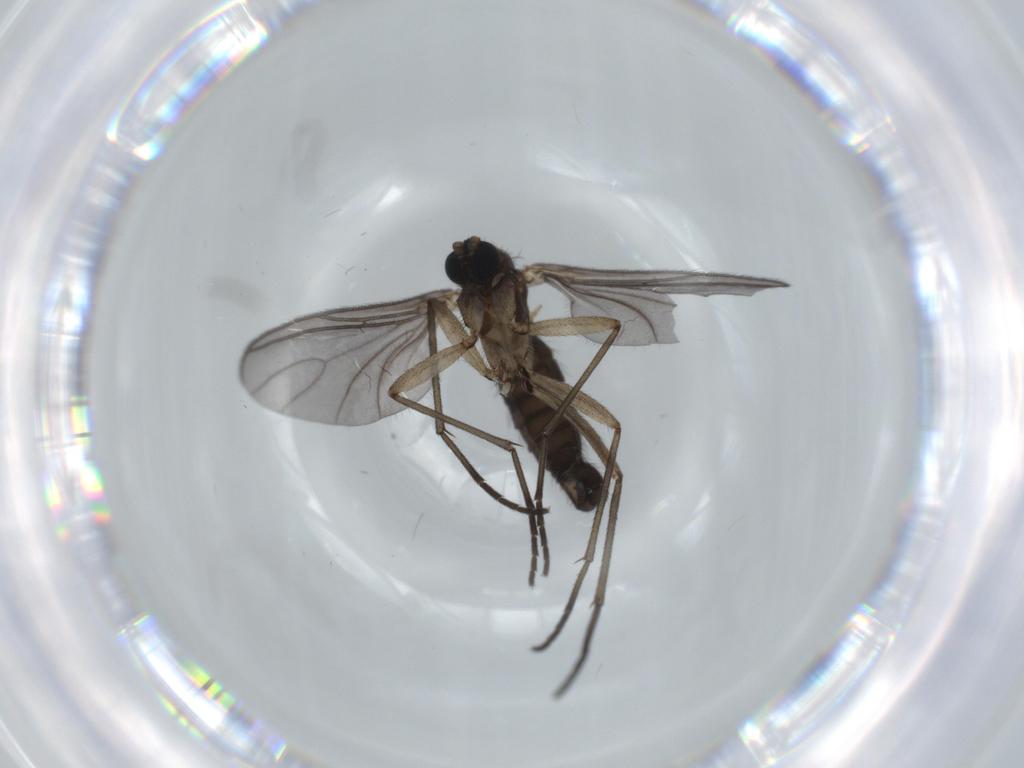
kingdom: Animalia
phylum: Arthropoda
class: Insecta
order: Diptera
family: Sciaridae
